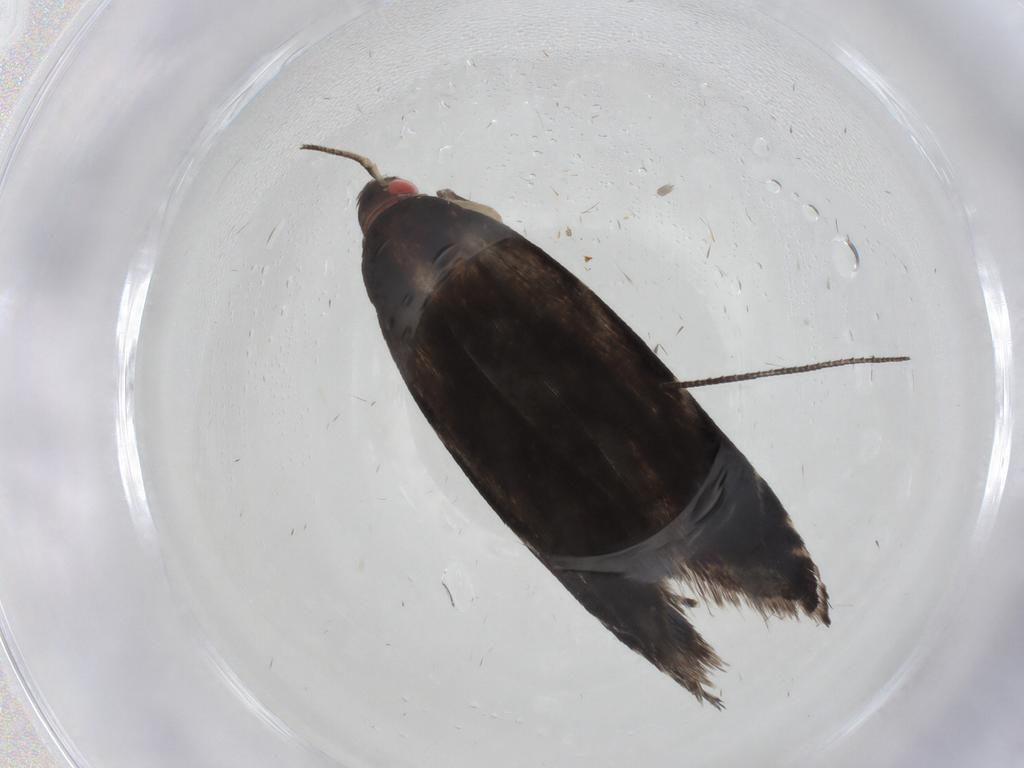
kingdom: Animalia
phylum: Arthropoda
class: Insecta
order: Lepidoptera
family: Gelechiidae
